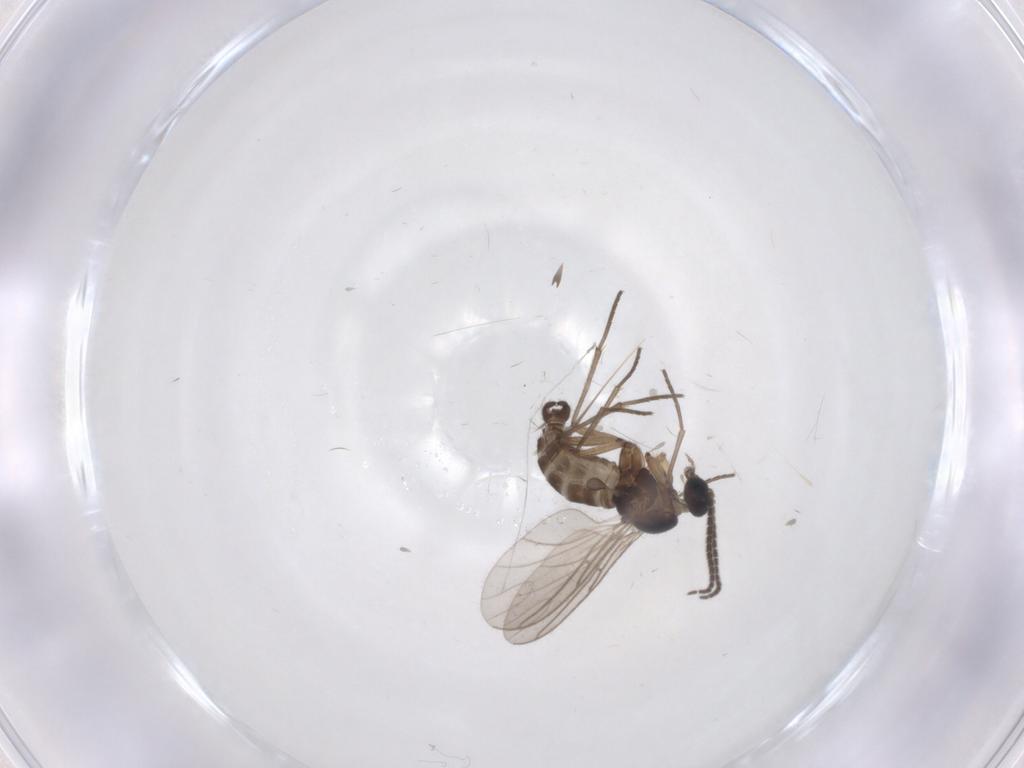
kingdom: Animalia
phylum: Arthropoda
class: Insecta
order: Diptera
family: Sciaridae
